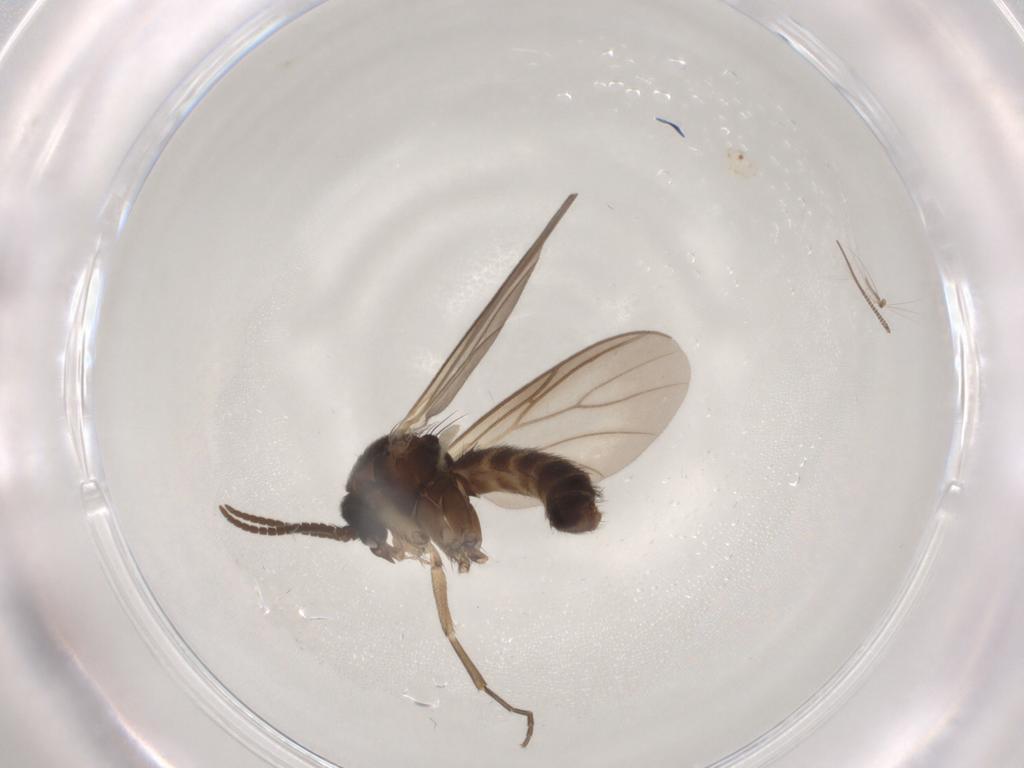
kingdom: Animalia
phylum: Arthropoda
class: Insecta
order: Diptera
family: Mycetophilidae
